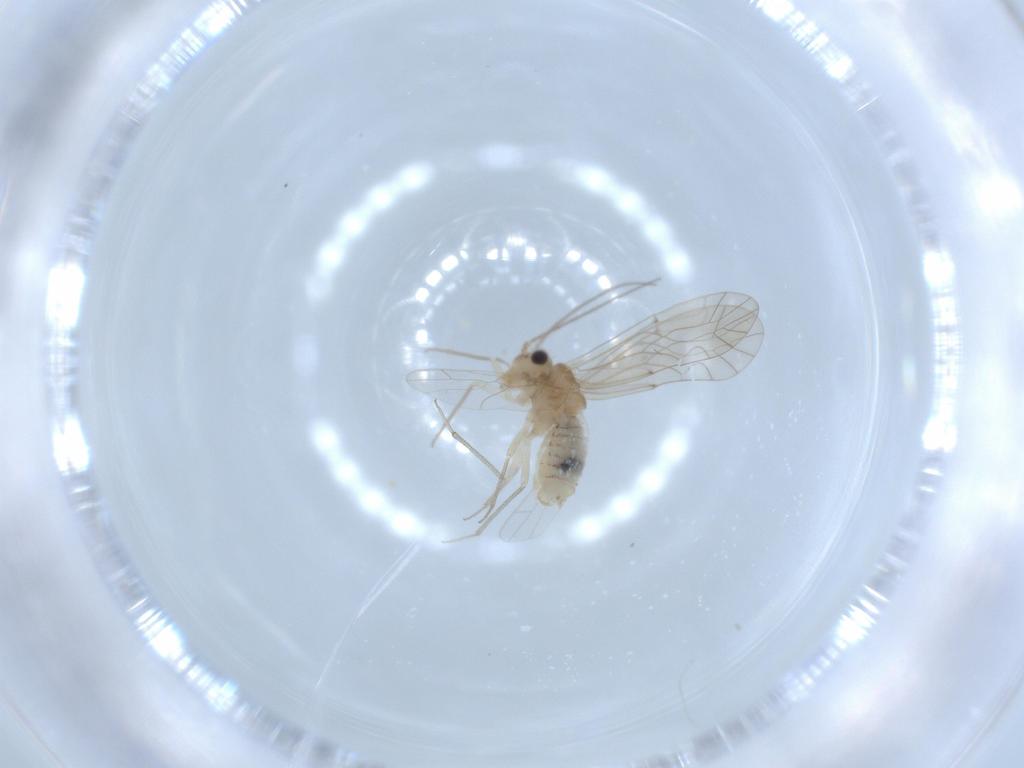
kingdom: Animalia
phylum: Arthropoda
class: Insecta
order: Psocodea
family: Lachesillidae
